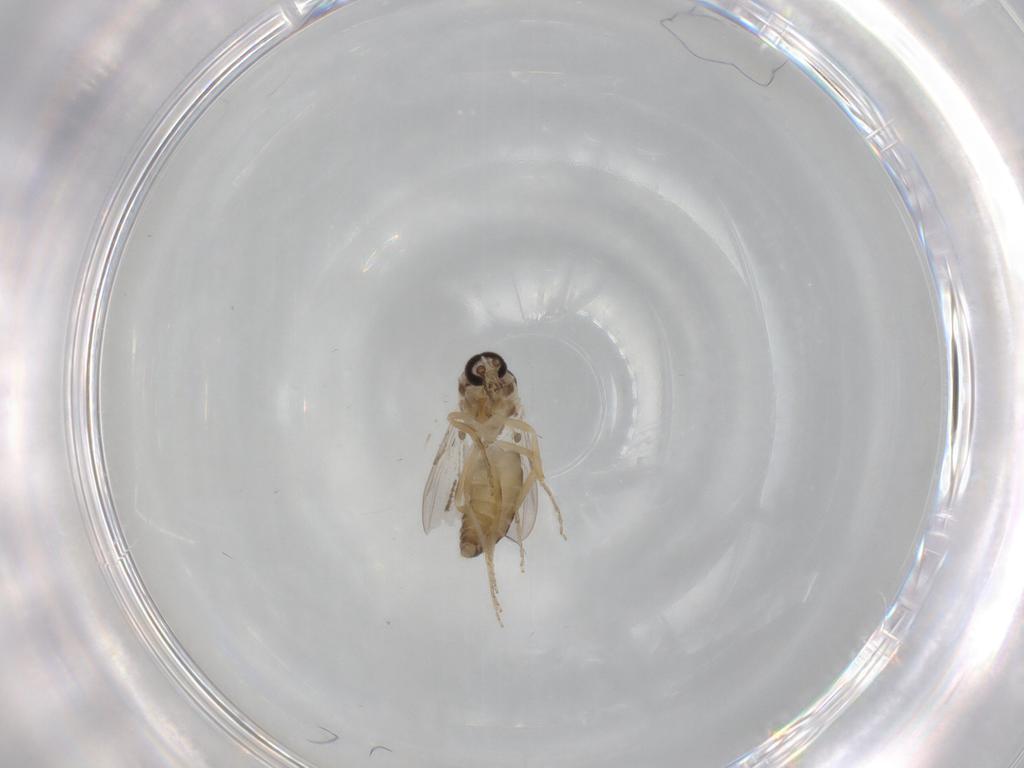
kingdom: Animalia
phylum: Arthropoda
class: Insecta
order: Diptera
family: Ceratopogonidae
